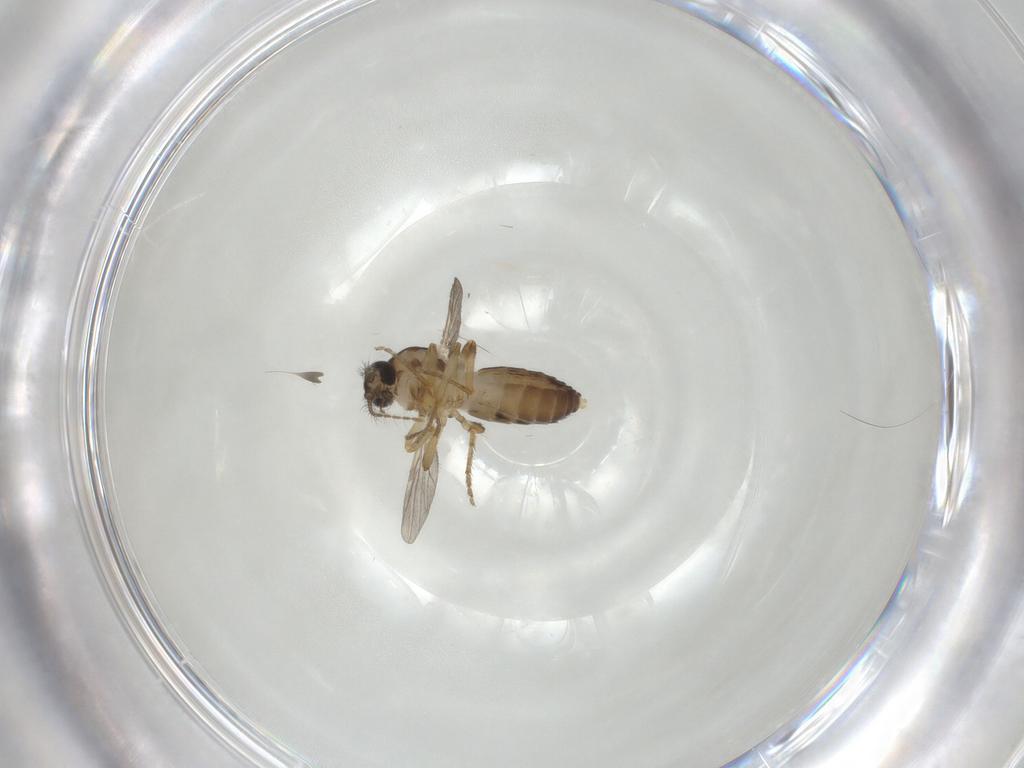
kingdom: Animalia
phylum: Arthropoda
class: Insecta
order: Diptera
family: Ceratopogonidae
